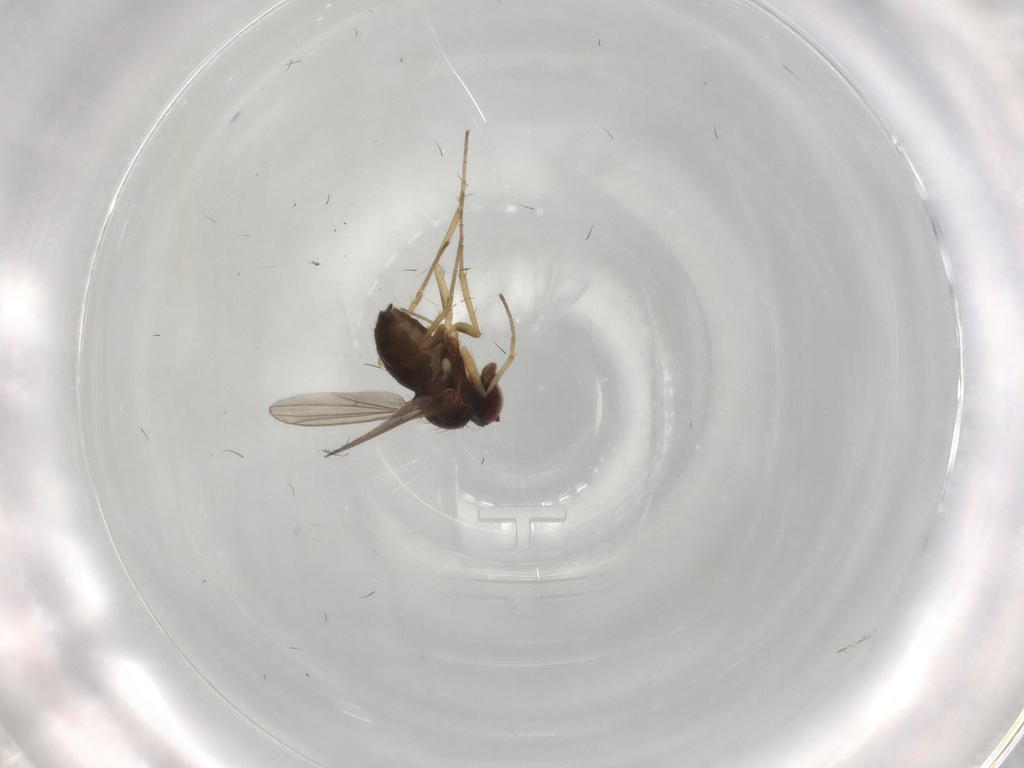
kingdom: Animalia
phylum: Arthropoda
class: Insecta
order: Diptera
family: Dolichopodidae
